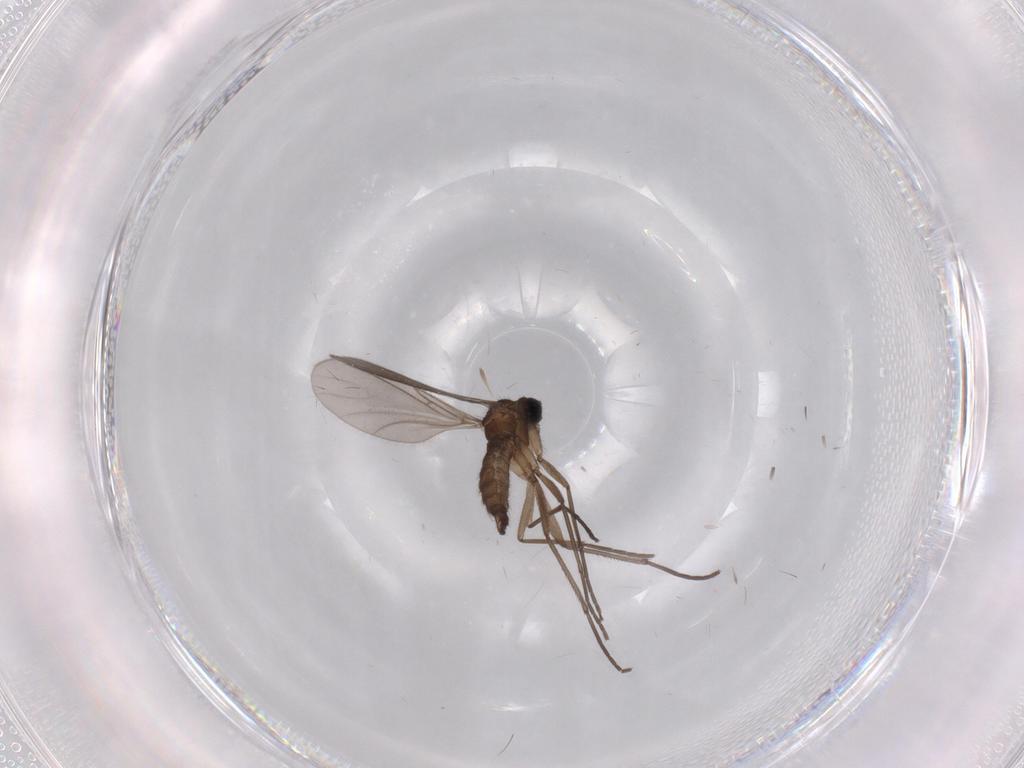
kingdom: Animalia
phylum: Arthropoda
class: Insecta
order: Diptera
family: Sciaridae
